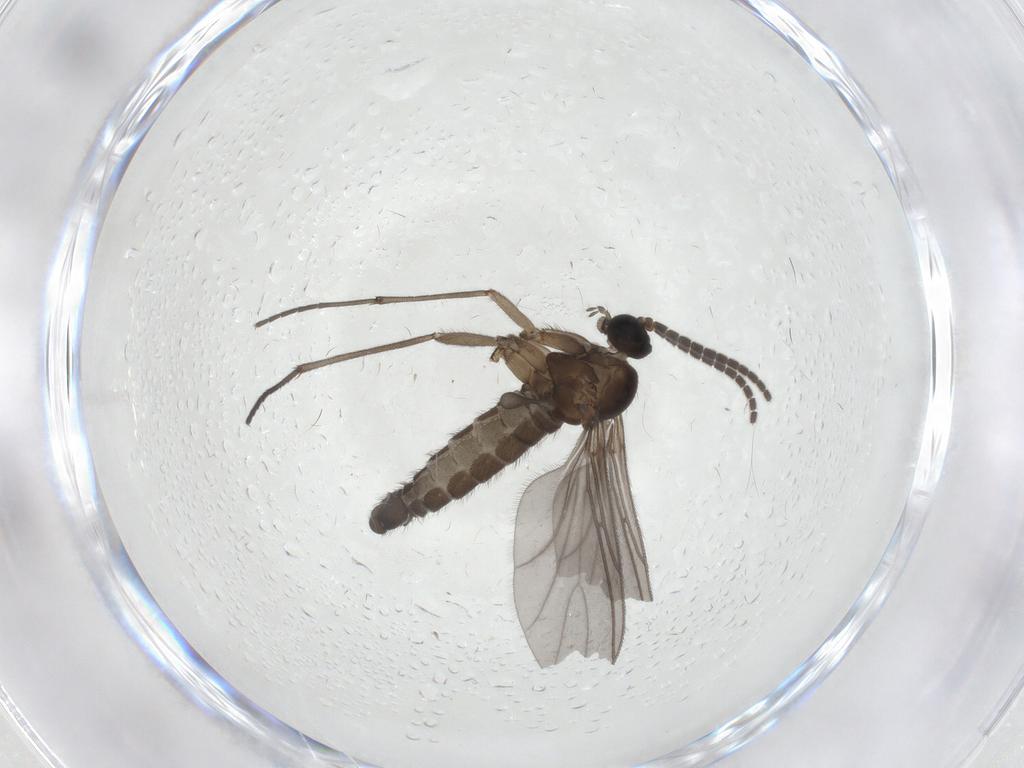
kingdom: Animalia
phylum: Arthropoda
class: Insecta
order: Diptera
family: Sciaridae
